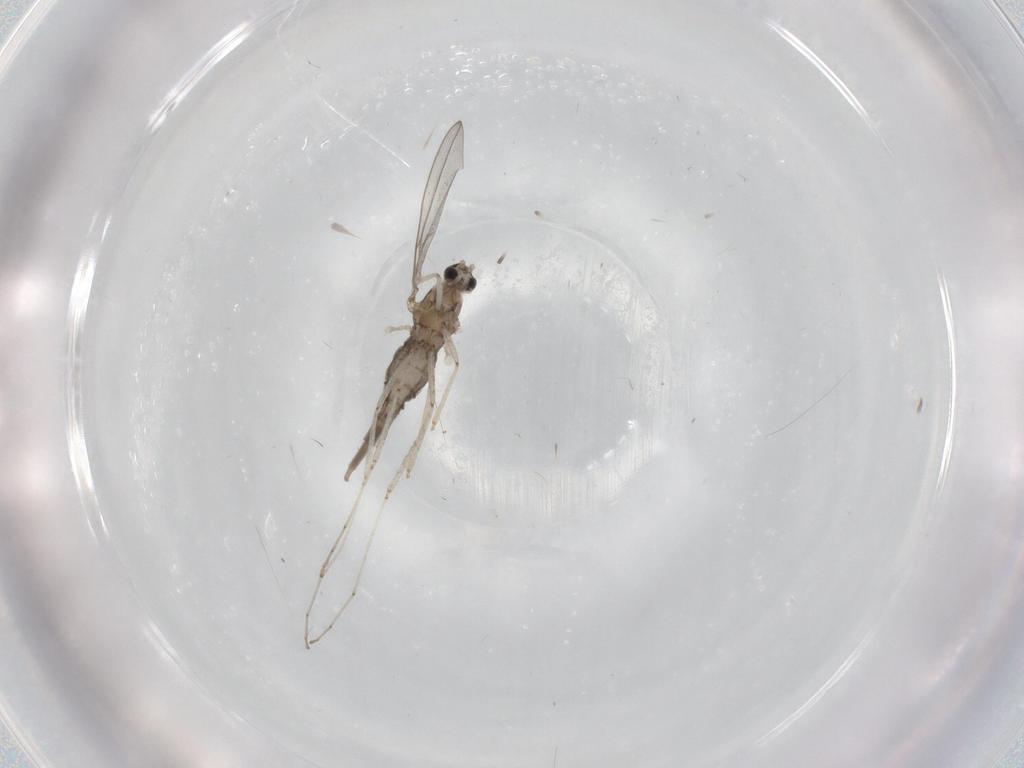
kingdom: Animalia
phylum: Arthropoda
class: Insecta
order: Diptera
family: Cecidomyiidae
